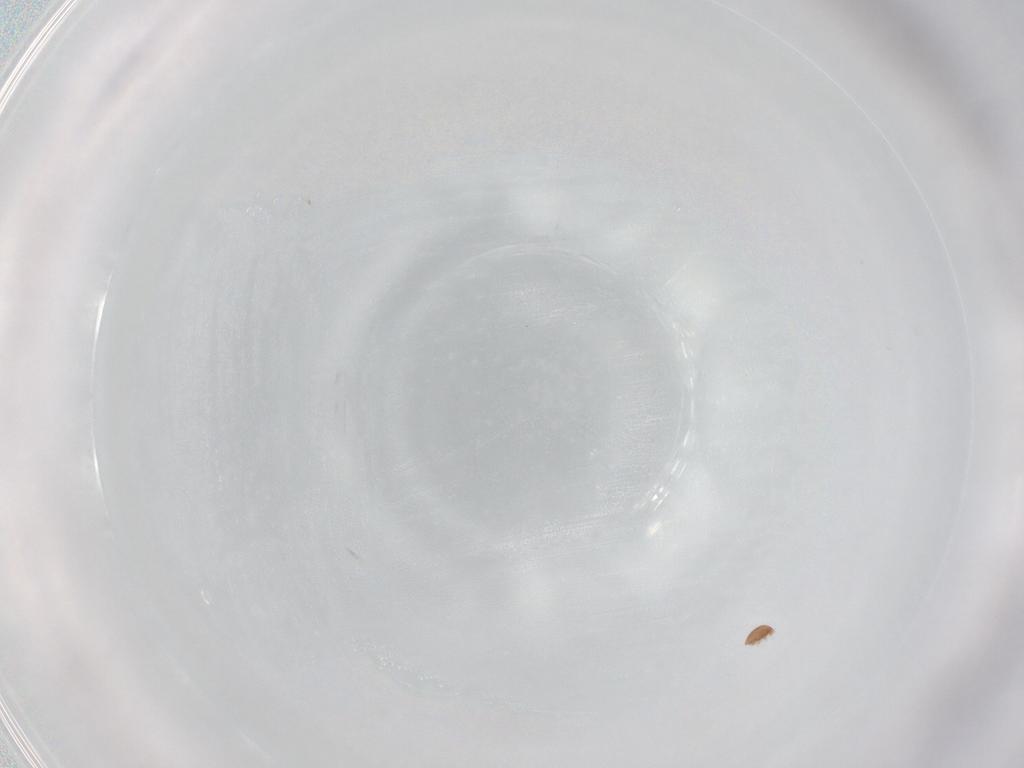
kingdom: Animalia
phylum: Arthropoda
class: Arachnida
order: Trombidiformes
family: Scutacaridae
